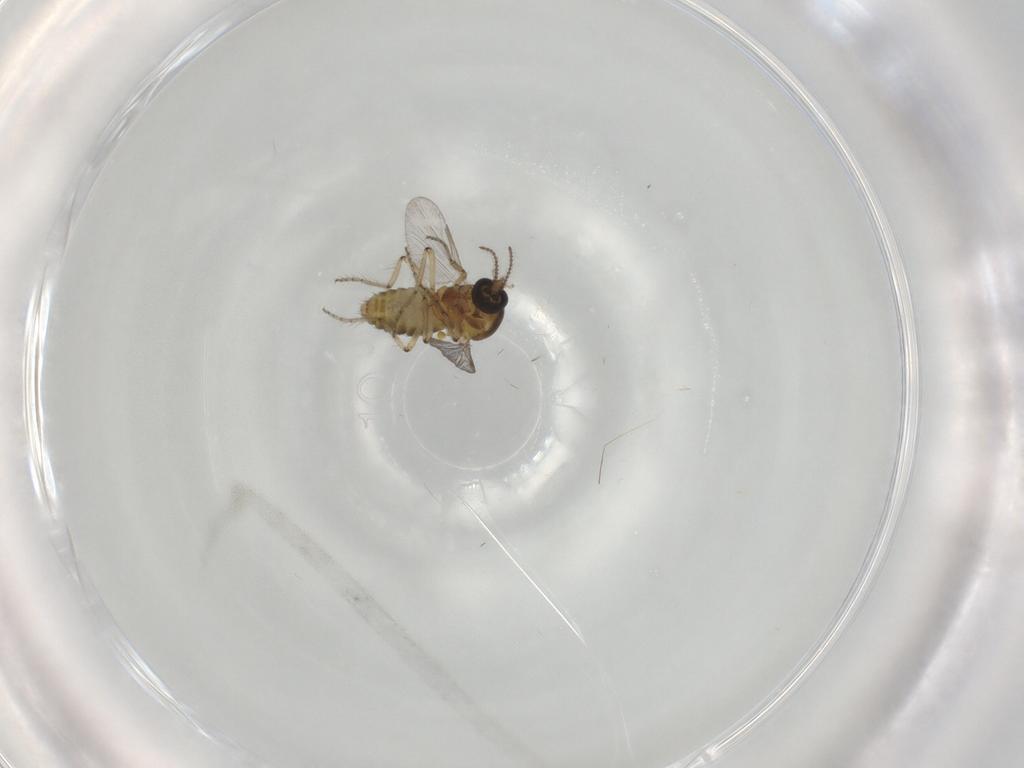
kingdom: Animalia
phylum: Arthropoda
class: Insecta
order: Diptera
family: Ceratopogonidae
